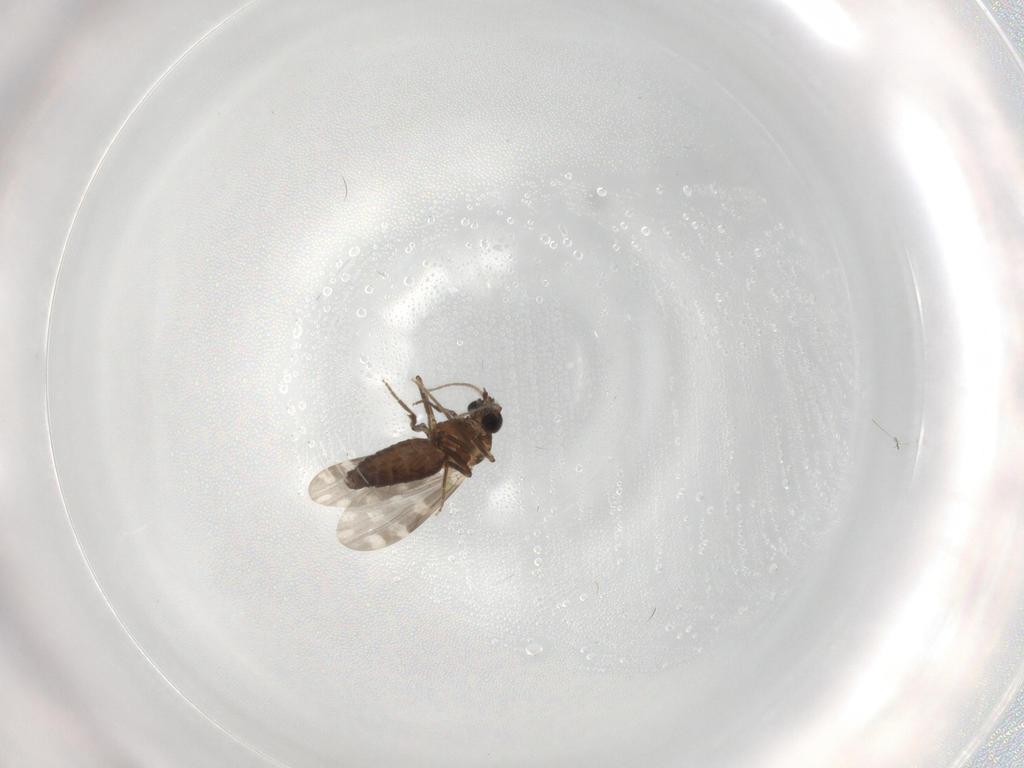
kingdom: Animalia
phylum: Arthropoda
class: Insecta
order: Diptera
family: Ceratopogonidae
